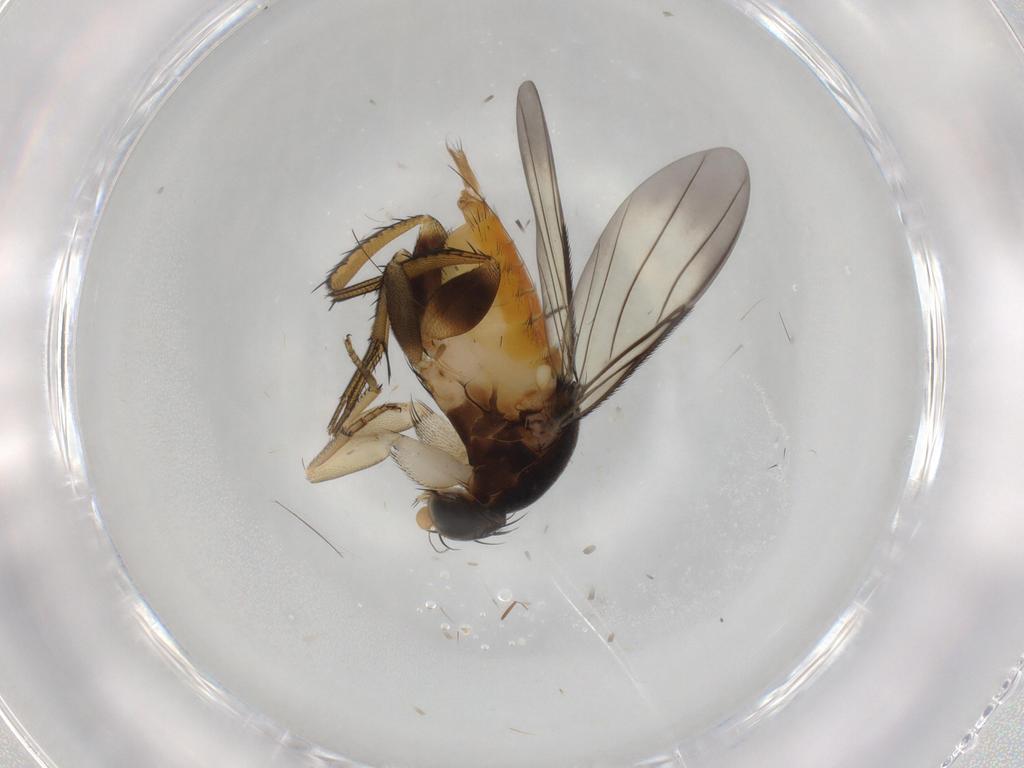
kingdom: Animalia
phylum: Arthropoda
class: Insecta
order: Diptera
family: Phoridae
